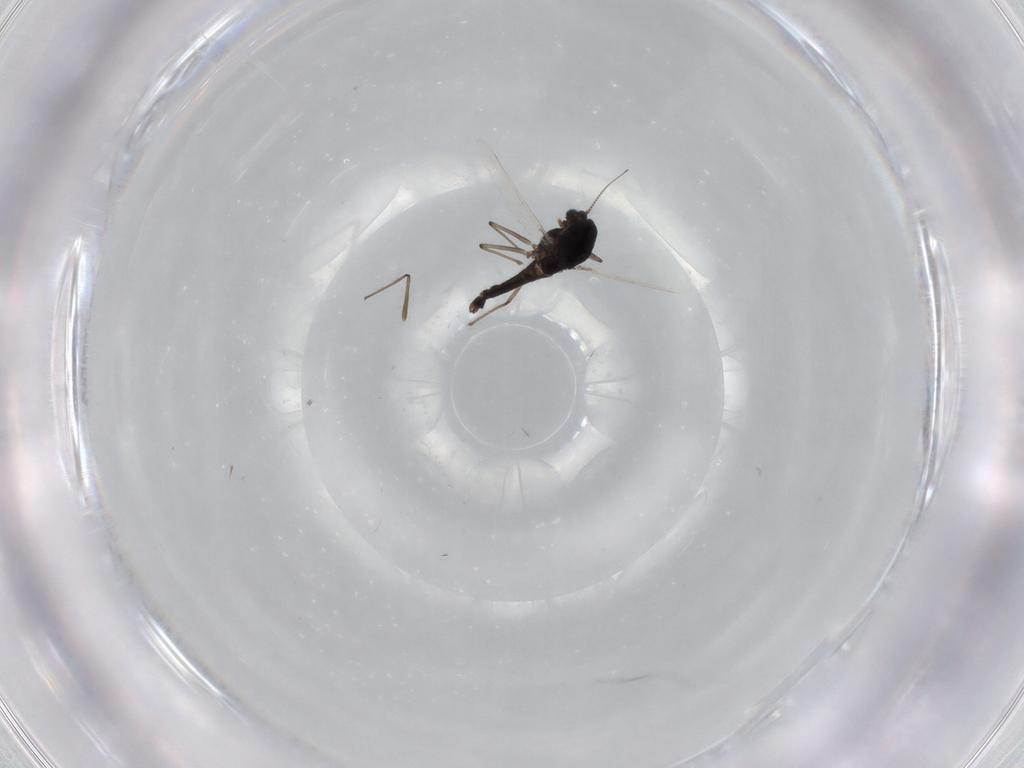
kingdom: Animalia
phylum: Arthropoda
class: Insecta
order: Diptera
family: Chironomidae
